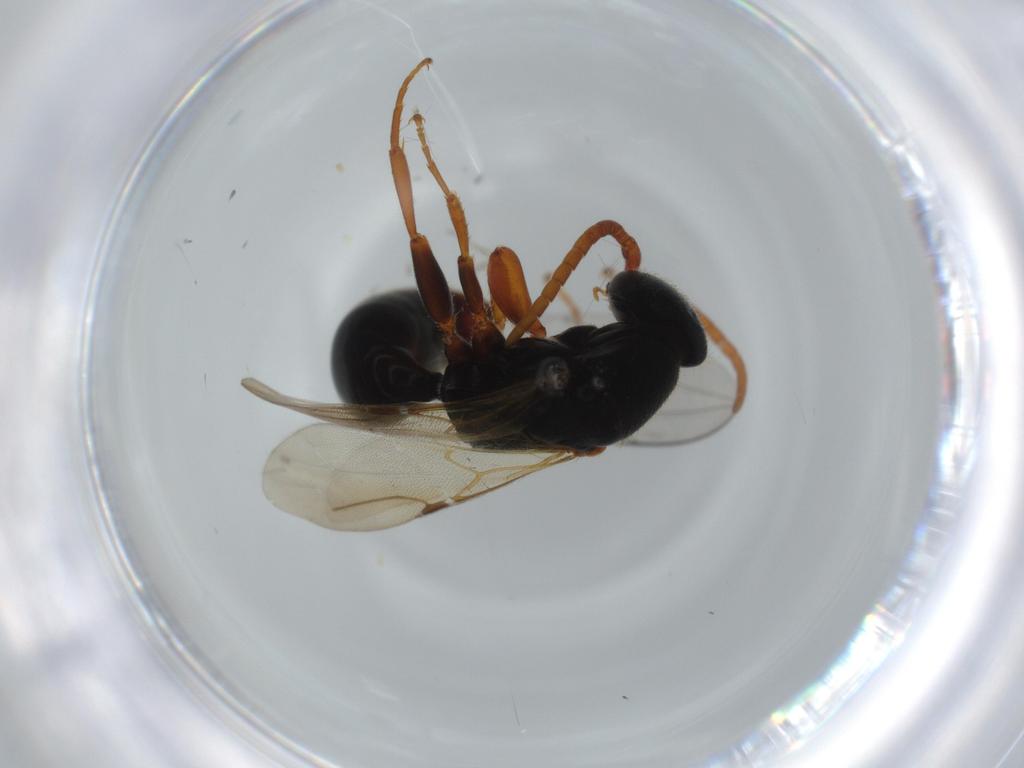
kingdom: Animalia
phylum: Arthropoda
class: Insecta
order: Hymenoptera
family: Bethylidae
